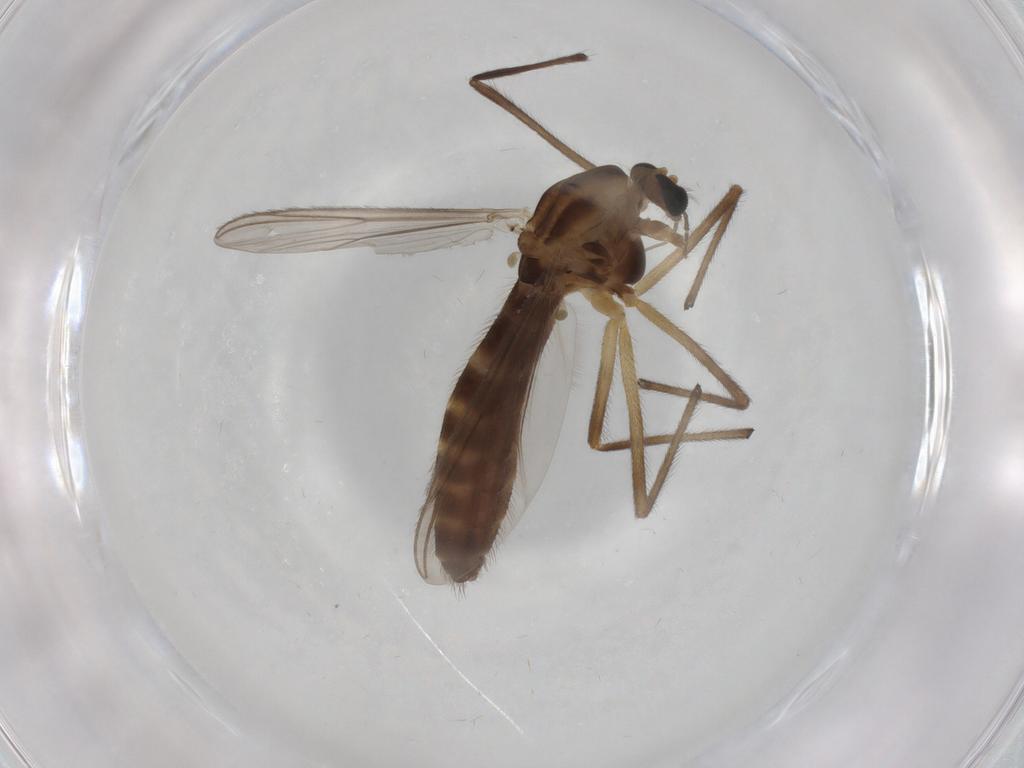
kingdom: Animalia
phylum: Arthropoda
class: Insecta
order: Diptera
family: Chironomidae
